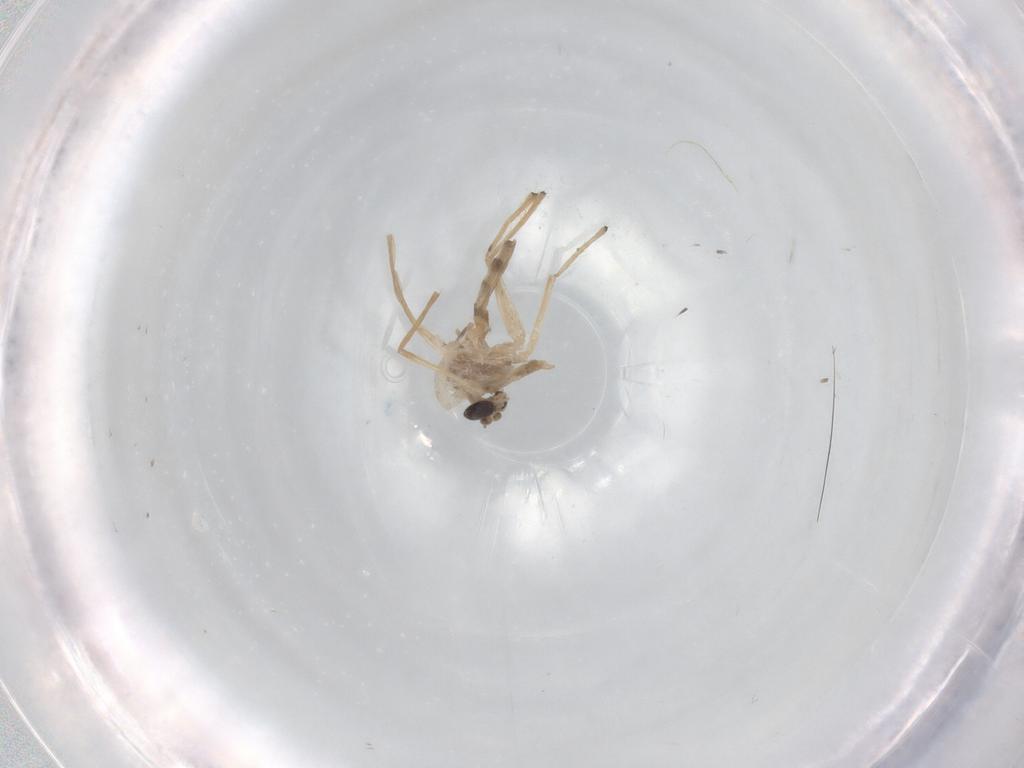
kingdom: Animalia
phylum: Arthropoda
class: Insecta
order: Diptera
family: Chironomidae
